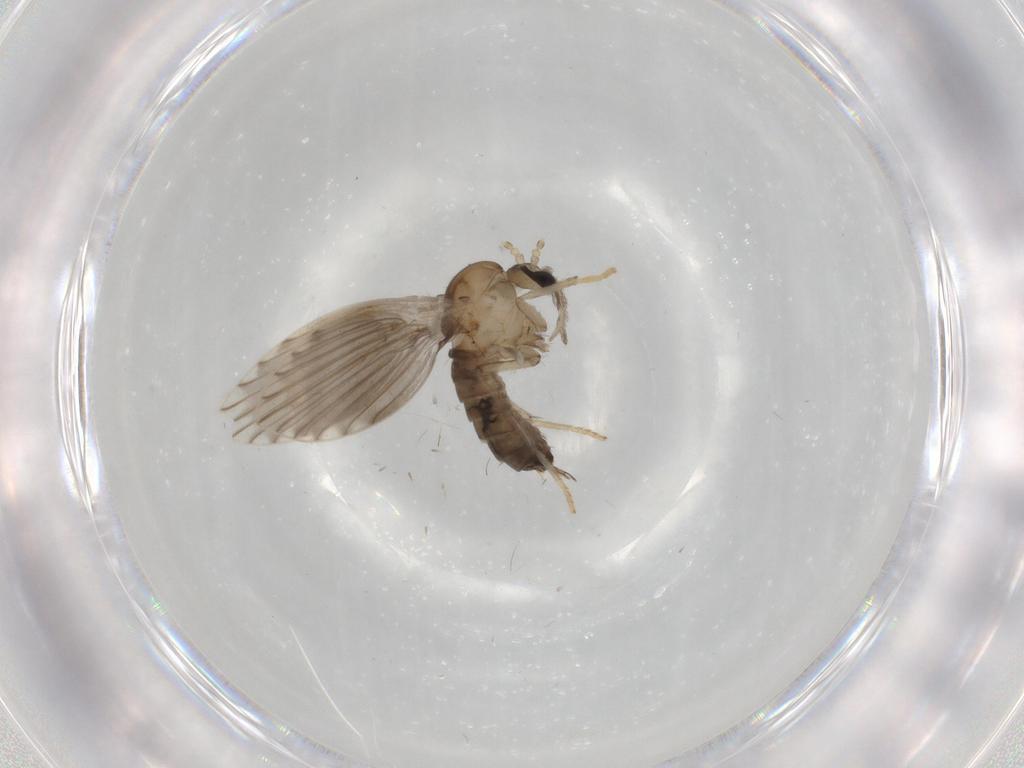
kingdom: Animalia
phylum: Arthropoda
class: Insecta
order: Diptera
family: Psychodidae
